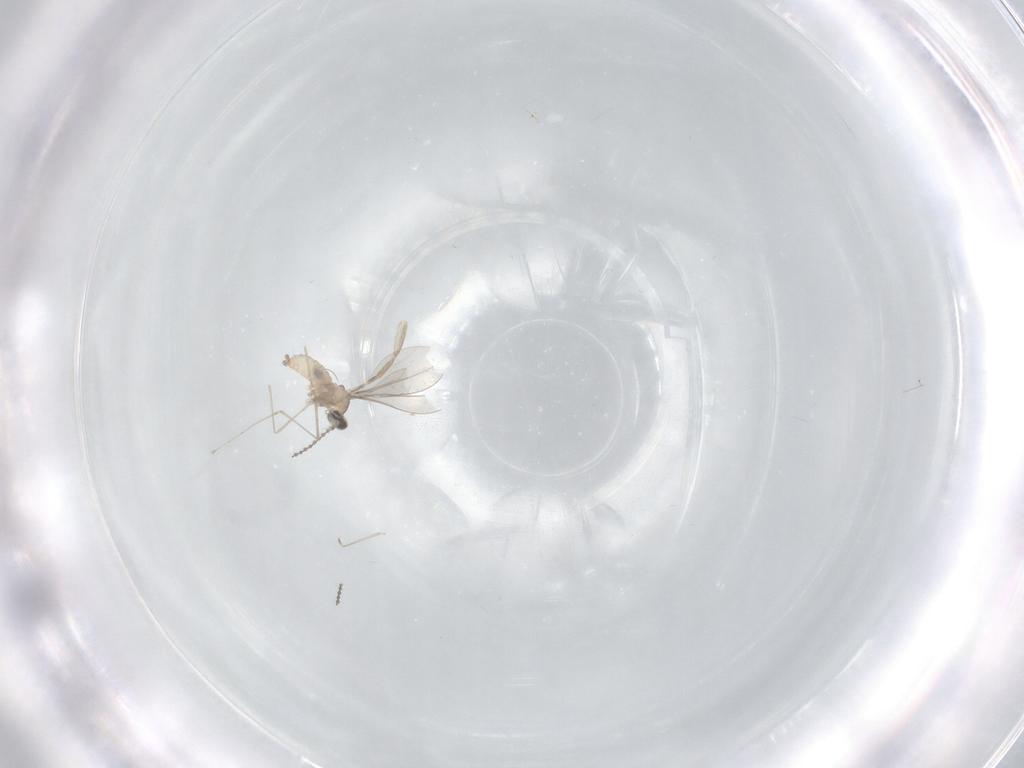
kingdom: Animalia
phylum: Arthropoda
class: Insecta
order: Diptera
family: Phoridae
